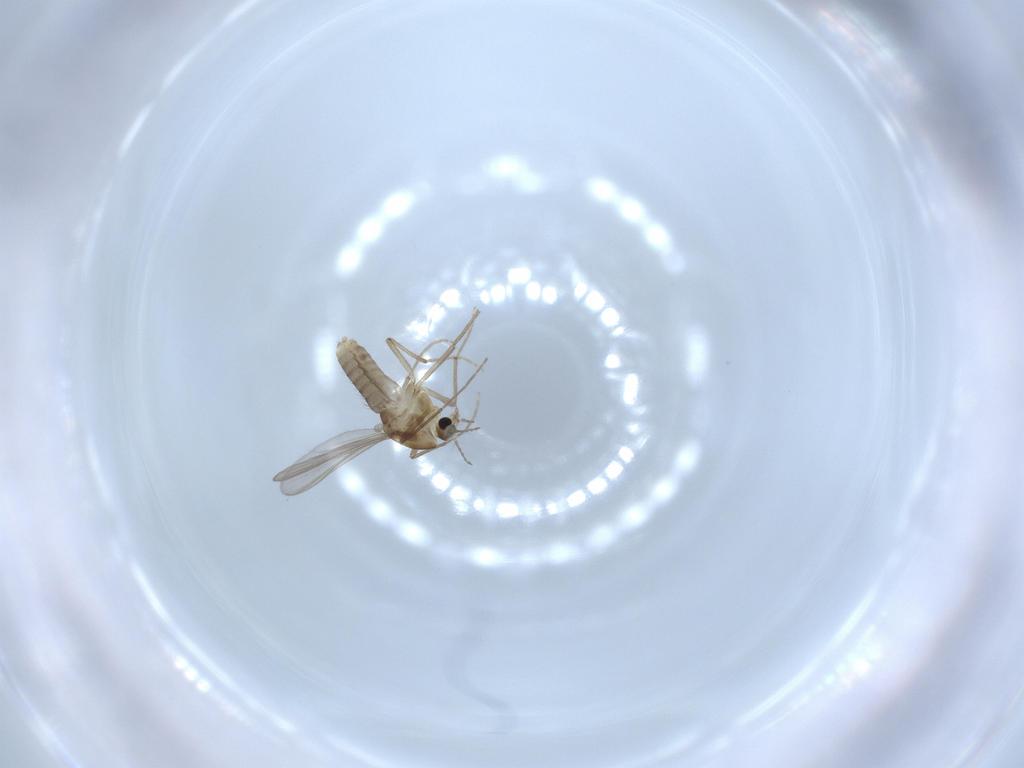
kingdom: Animalia
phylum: Arthropoda
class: Insecta
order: Diptera
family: Chironomidae
